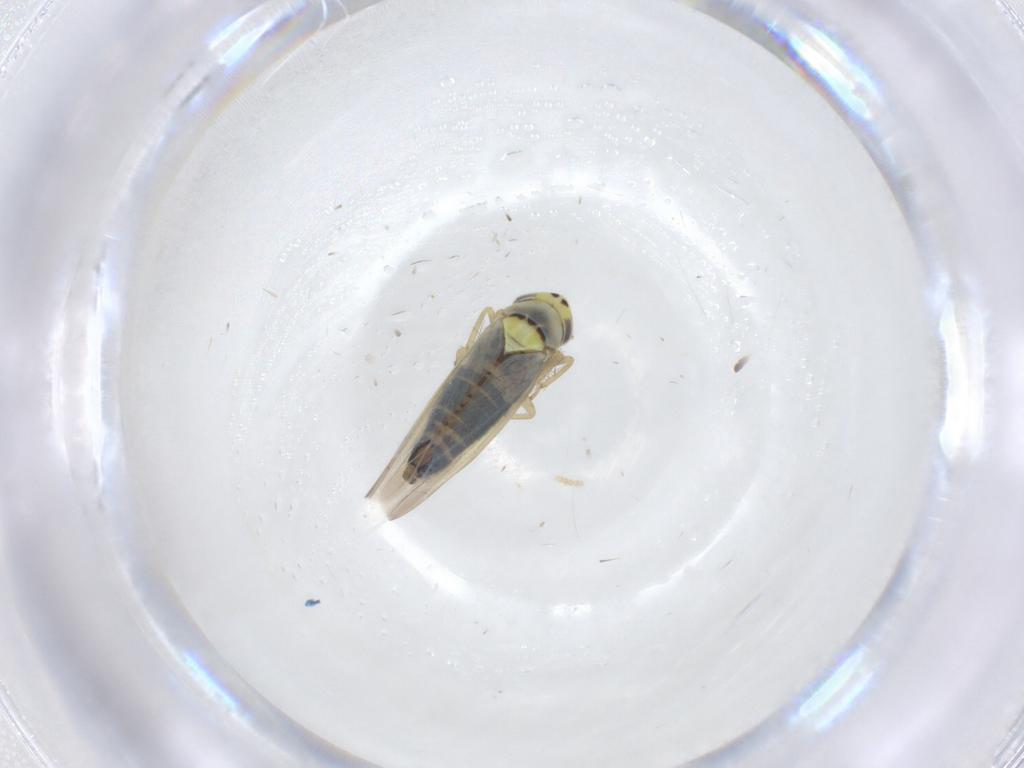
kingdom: Animalia
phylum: Arthropoda
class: Insecta
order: Hemiptera
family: Cicadellidae
